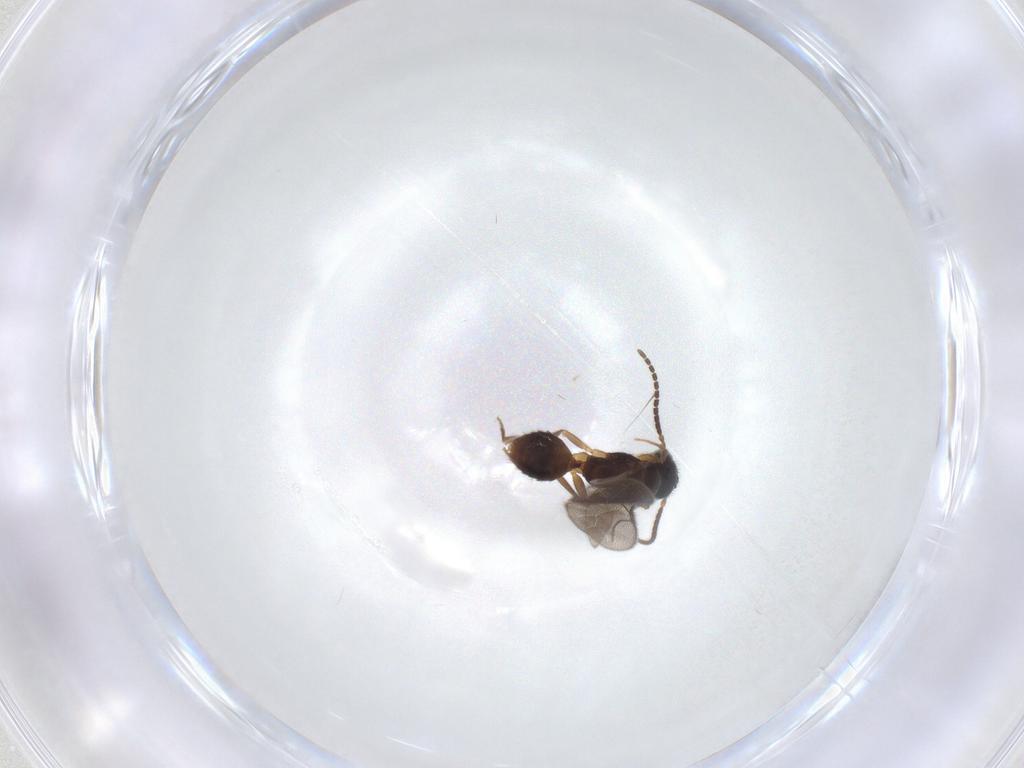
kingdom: Animalia
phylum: Arthropoda
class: Insecta
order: Hymenoptera
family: Bethylidae
